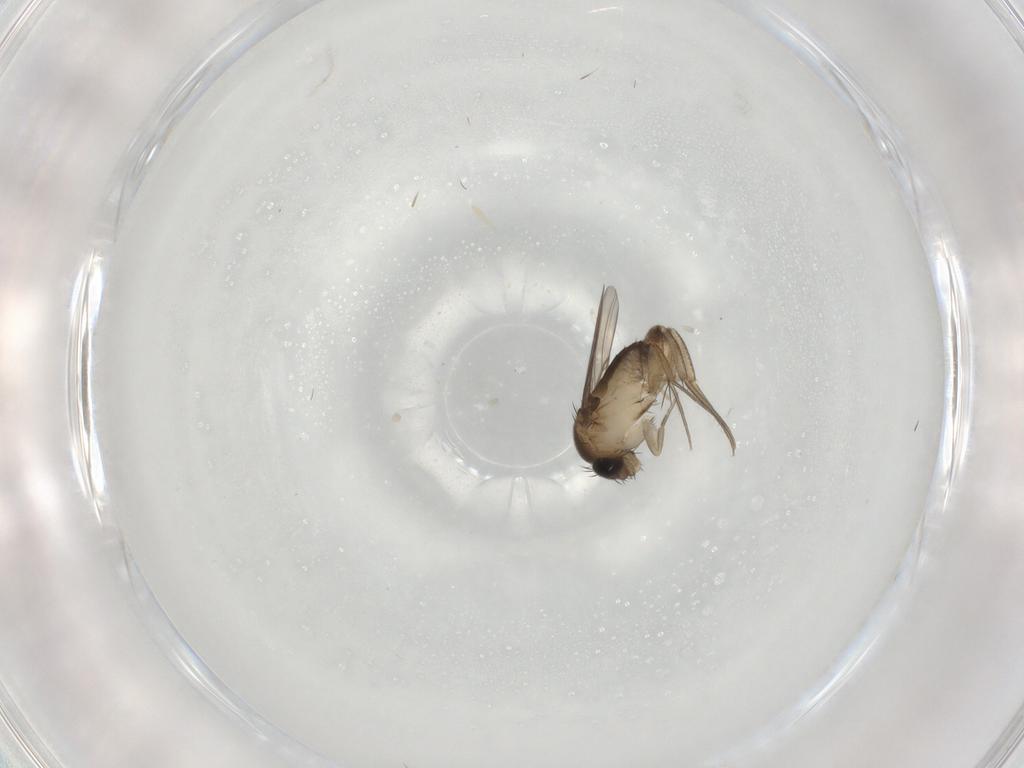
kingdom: Animalia
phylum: Arthropoda
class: Insecta
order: Diptera
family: Phoridae
